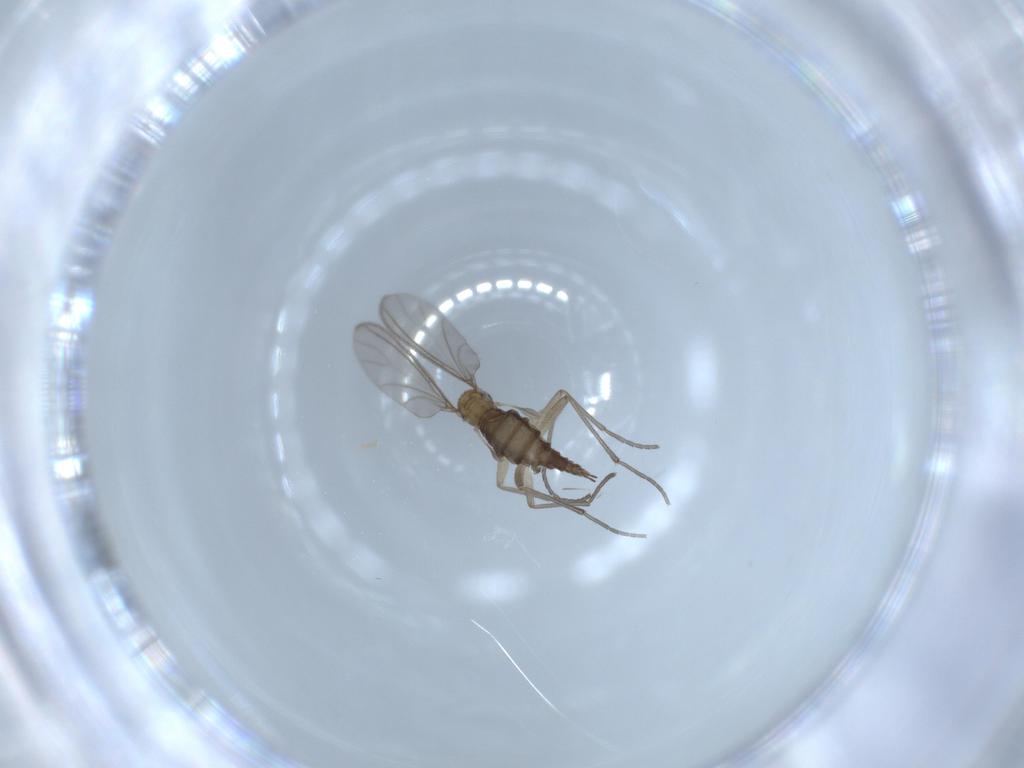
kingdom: Animalia
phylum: Arthropoda
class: Insecta
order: Diptera
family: Sciaridae
